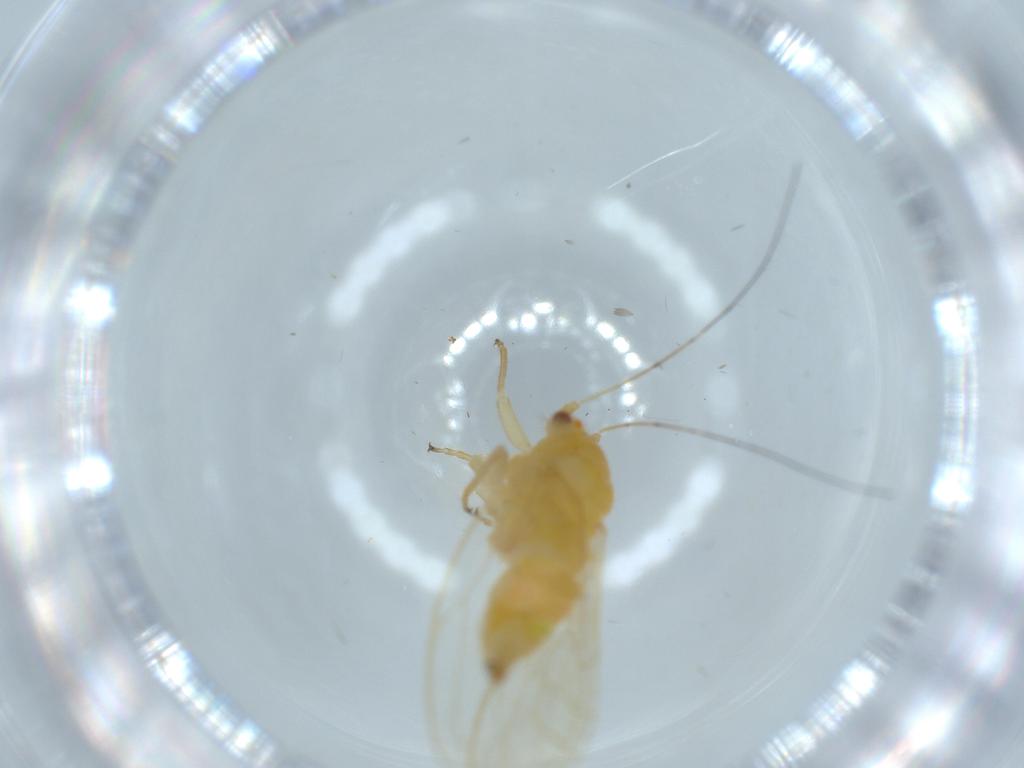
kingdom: Animalia
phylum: Arthropoda
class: Insecta
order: Hemiptera
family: Psyllidae
